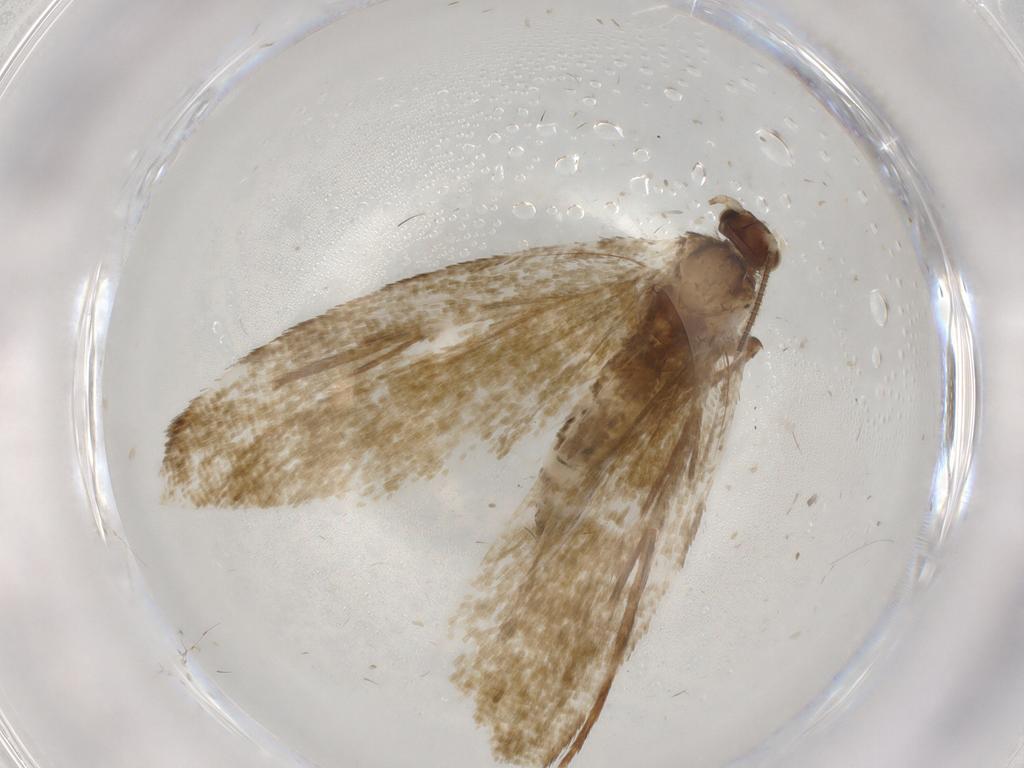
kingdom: Animalia
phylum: Arthropoda
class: Insecta
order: Lepidoptera
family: Tineidae
